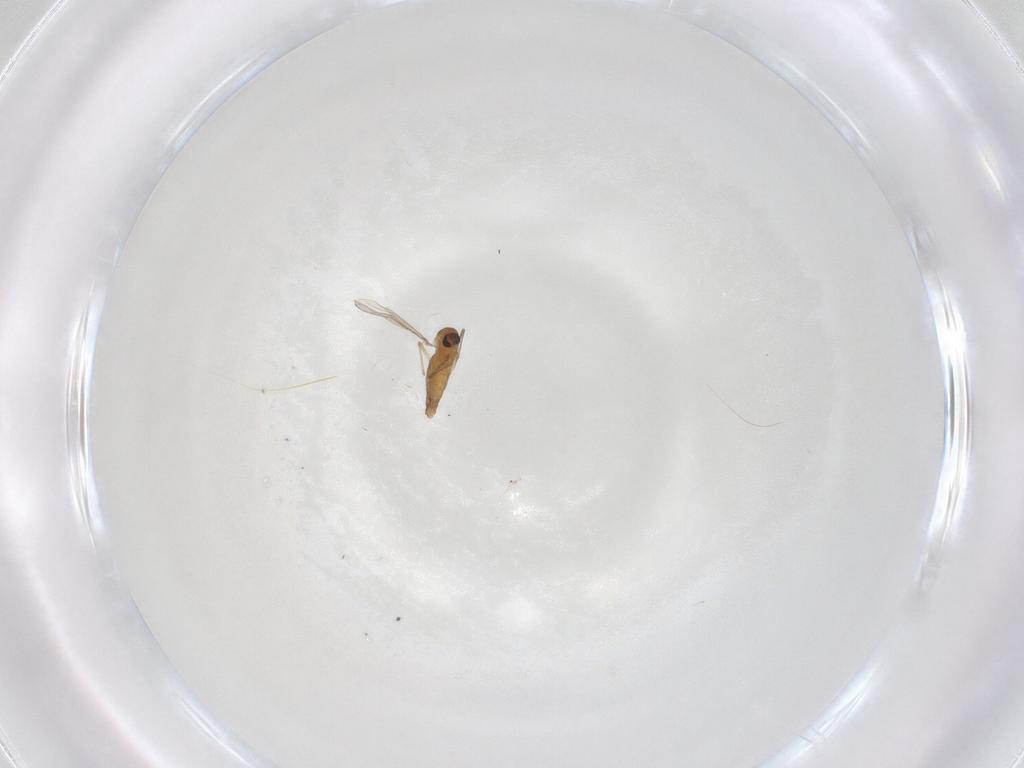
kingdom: Animalia
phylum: Arthropoda
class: Insecta
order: Diptera
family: Chironomidae
